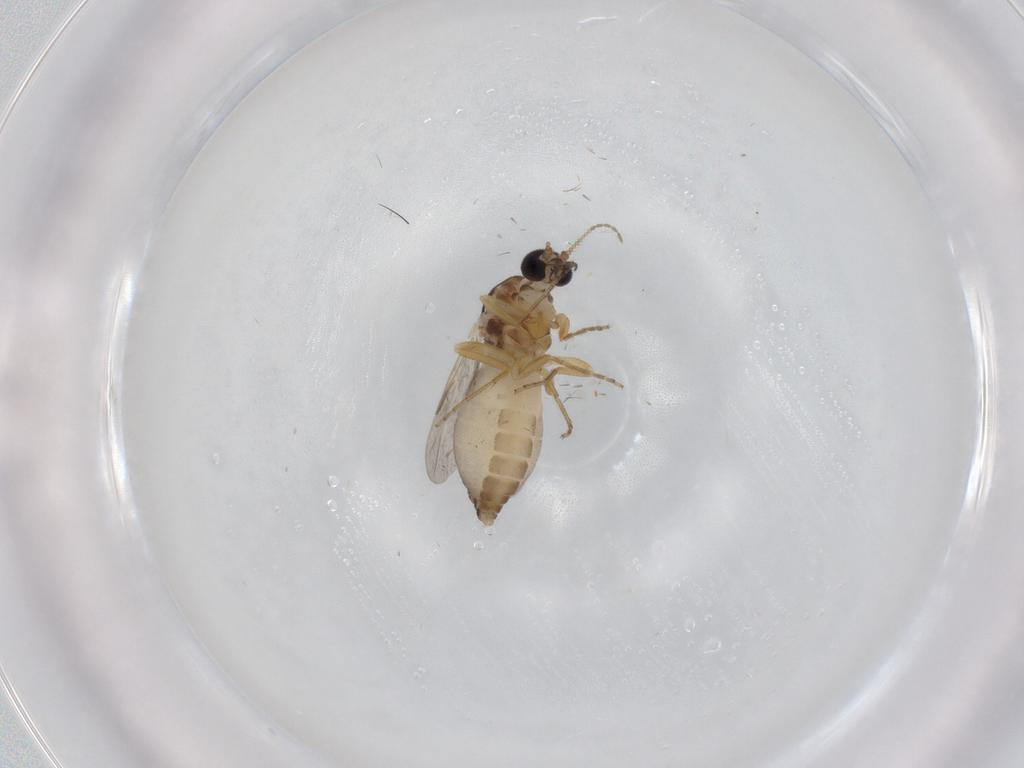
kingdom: Animalia
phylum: Arthropoda
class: Insecta
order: Diptera
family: Ceratopogonidae
